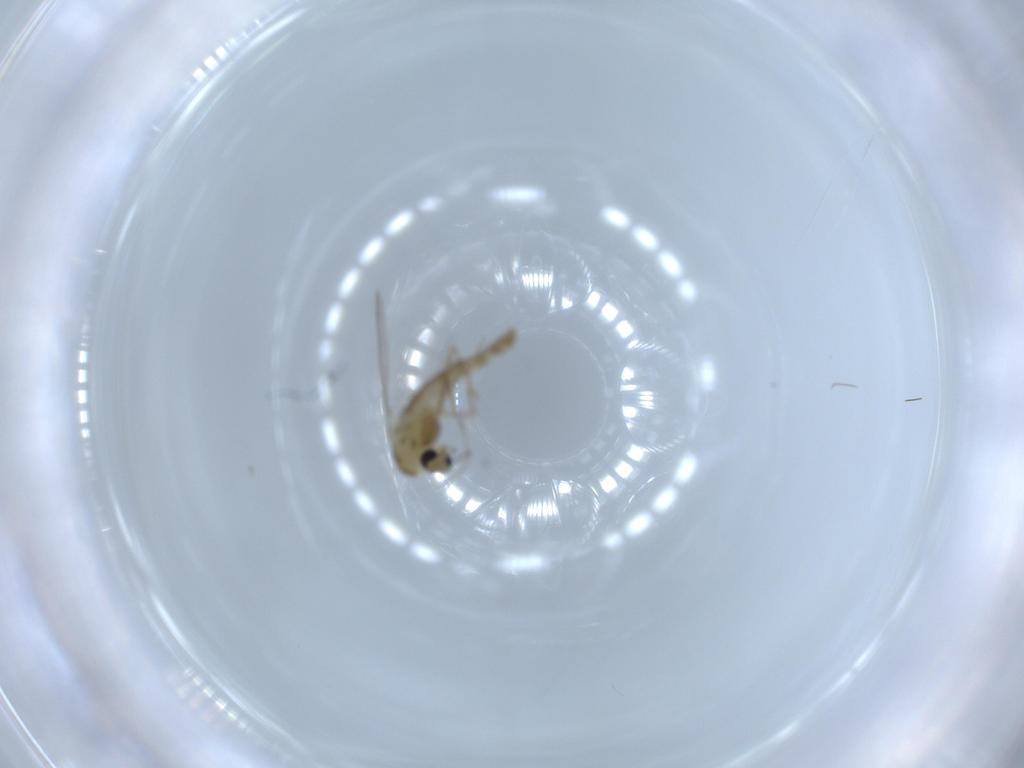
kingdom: Animalia
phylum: Arthropoda
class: Insecta
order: Diptera
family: Chironomidae
